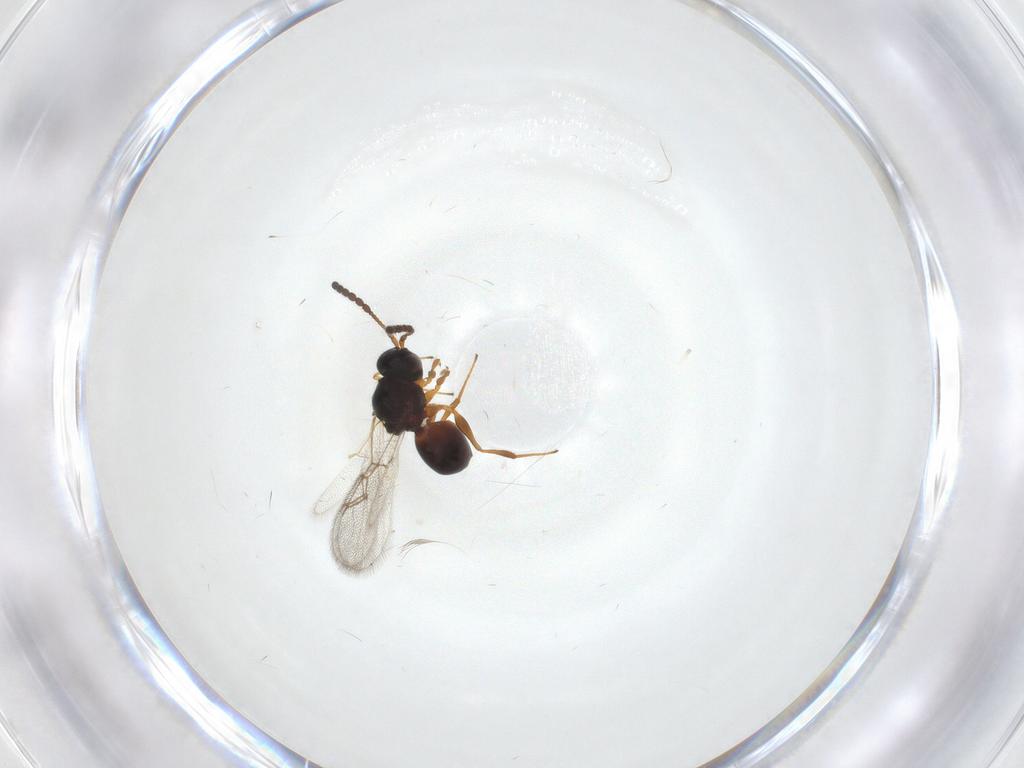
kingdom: Animalia
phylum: Arthropoda
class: Insecta
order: Hymenoptera
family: Figitidae
